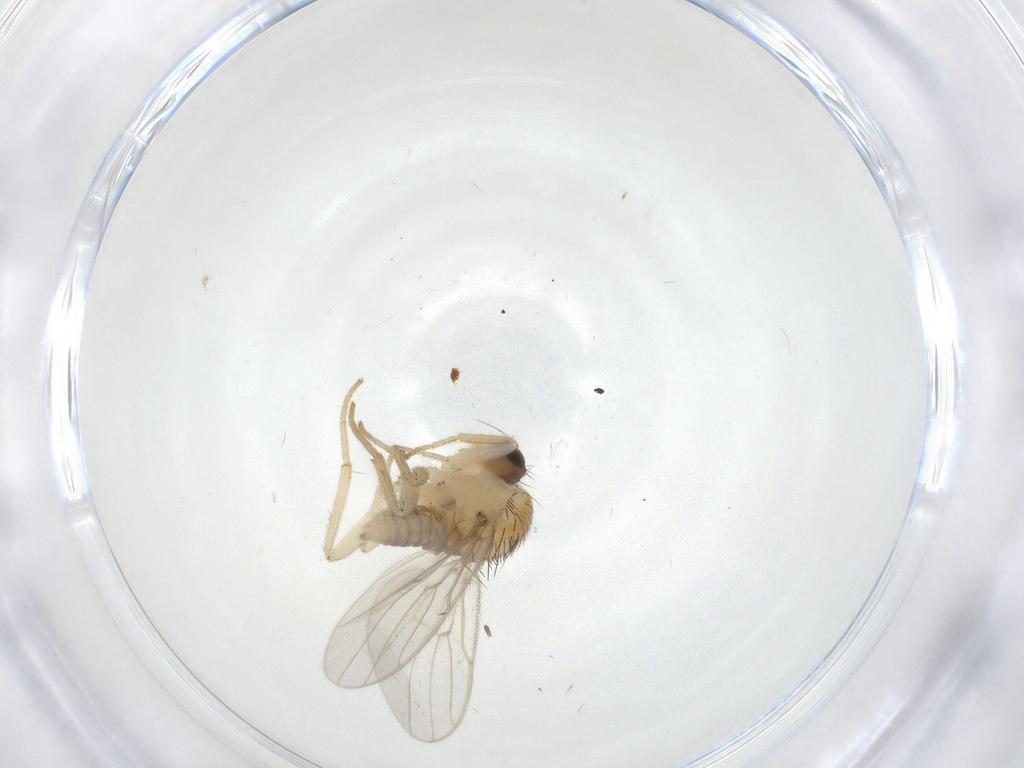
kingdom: Animalia
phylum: Arthropoda
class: Insecta
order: Diptera
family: Hybotidae
